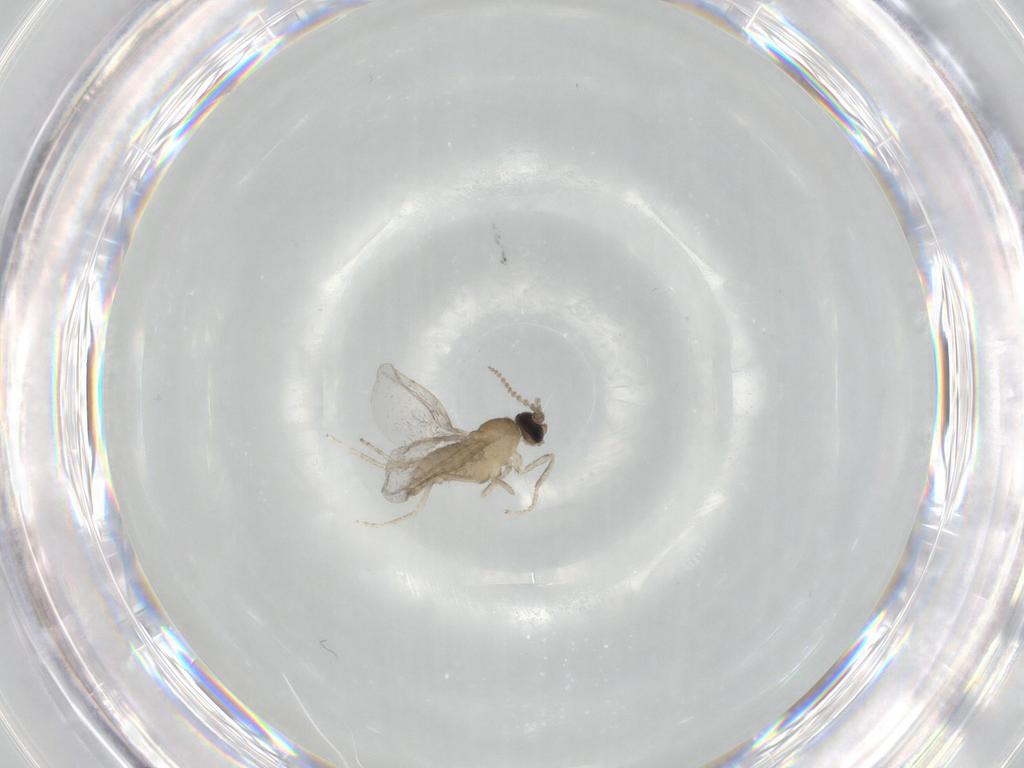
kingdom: Animalia
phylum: Arthropoda
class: Insecta
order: Diptera
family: Cecidomyiidae
